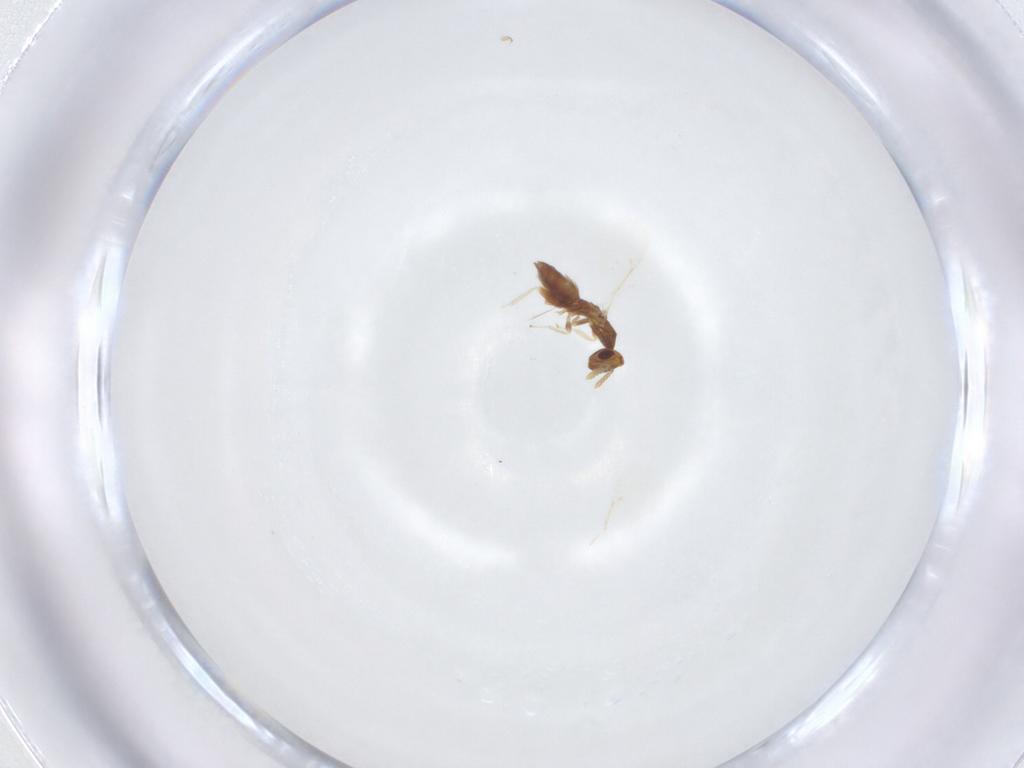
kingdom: Animalia
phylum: Arthropoda
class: Insecta
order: Hymenoptera
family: Eulophidae
